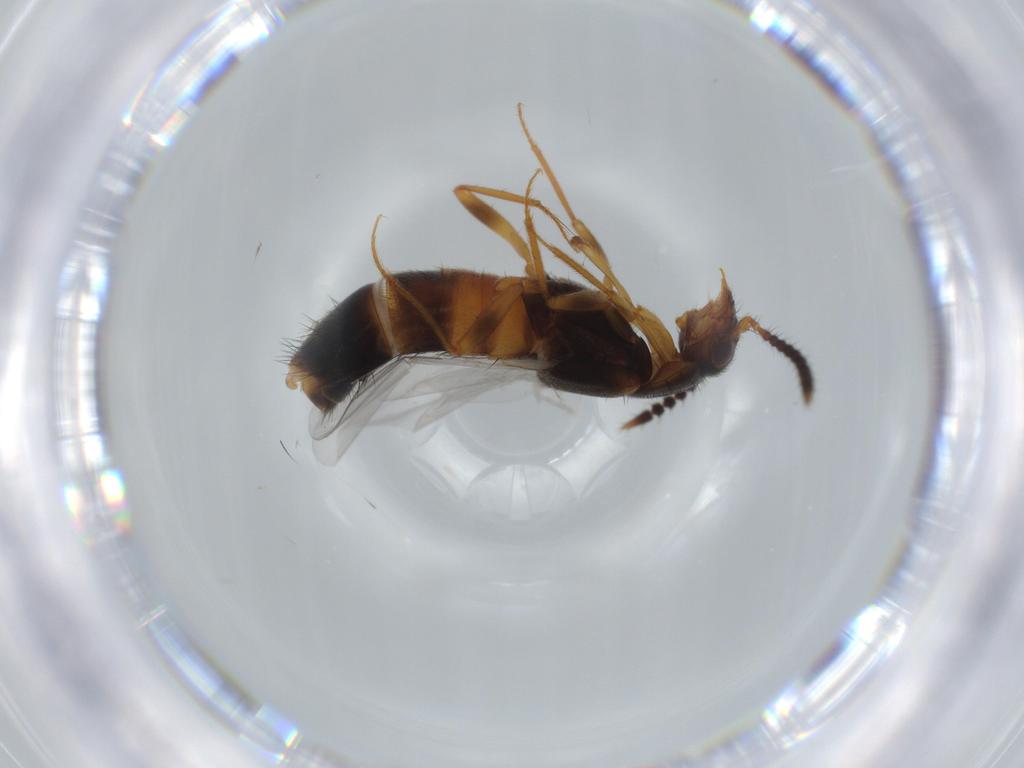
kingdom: Animalia
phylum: Arthropoda
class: Insecta
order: Coleoptera
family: Staphylinidae
